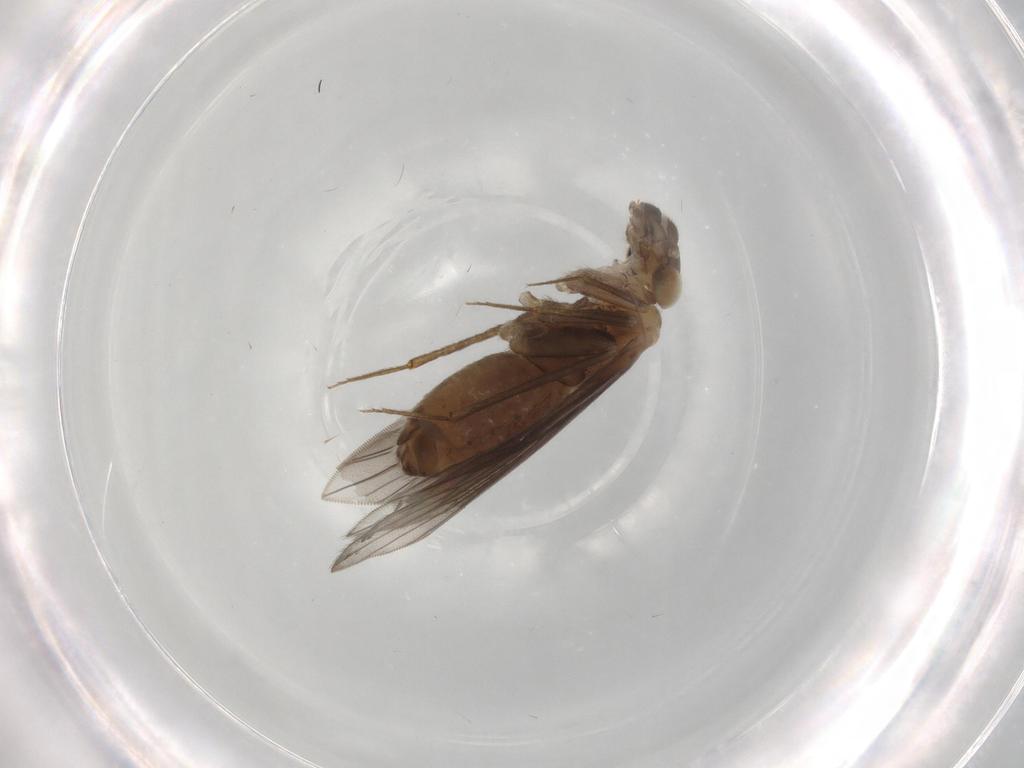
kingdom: Animalia
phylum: Arthropoda
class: Insecta
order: Psocodea
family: Lepidopsocidae
